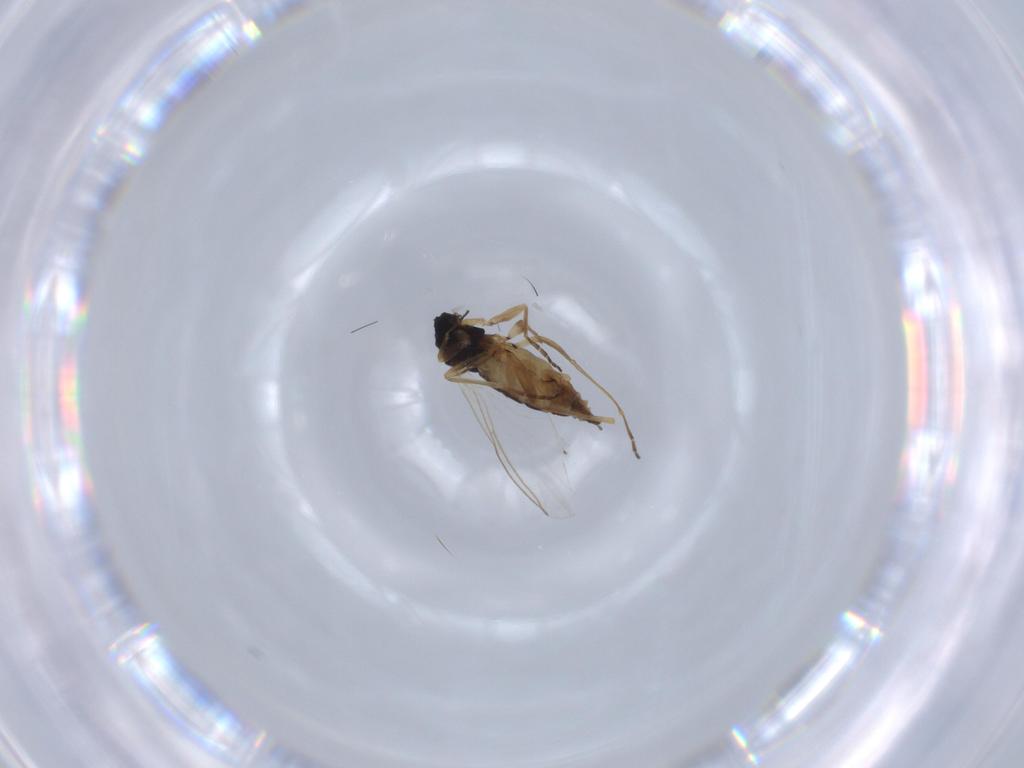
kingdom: Animalia
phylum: Arthropoda
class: Insecta
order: Diptera
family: Sciaridae
